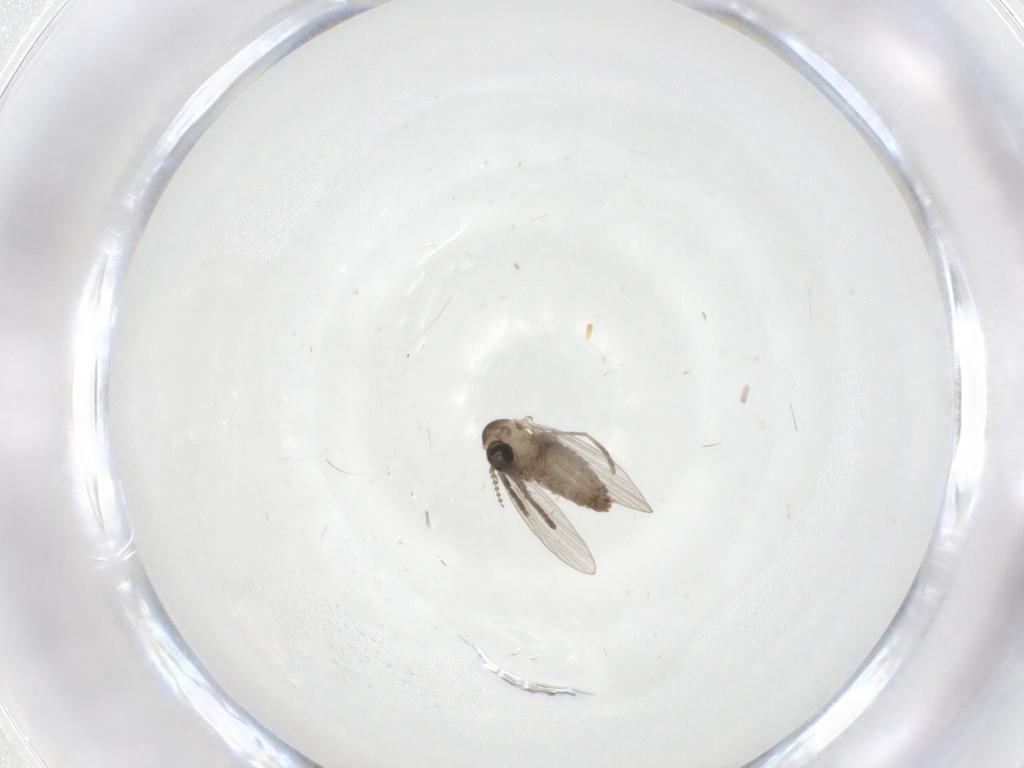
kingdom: Animalia
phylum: Arthropoda
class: Insecta
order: Diptera
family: Psychodidae
